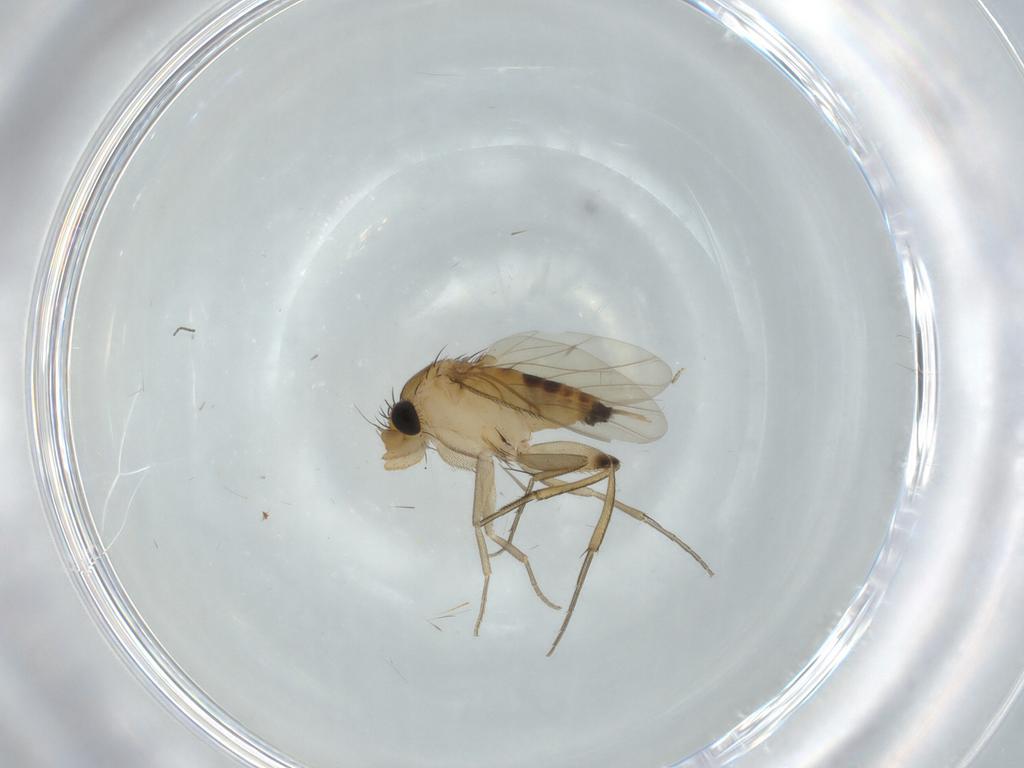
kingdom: Animalia
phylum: Arthropoda
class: Insecta
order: Diptera
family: Phoridae
